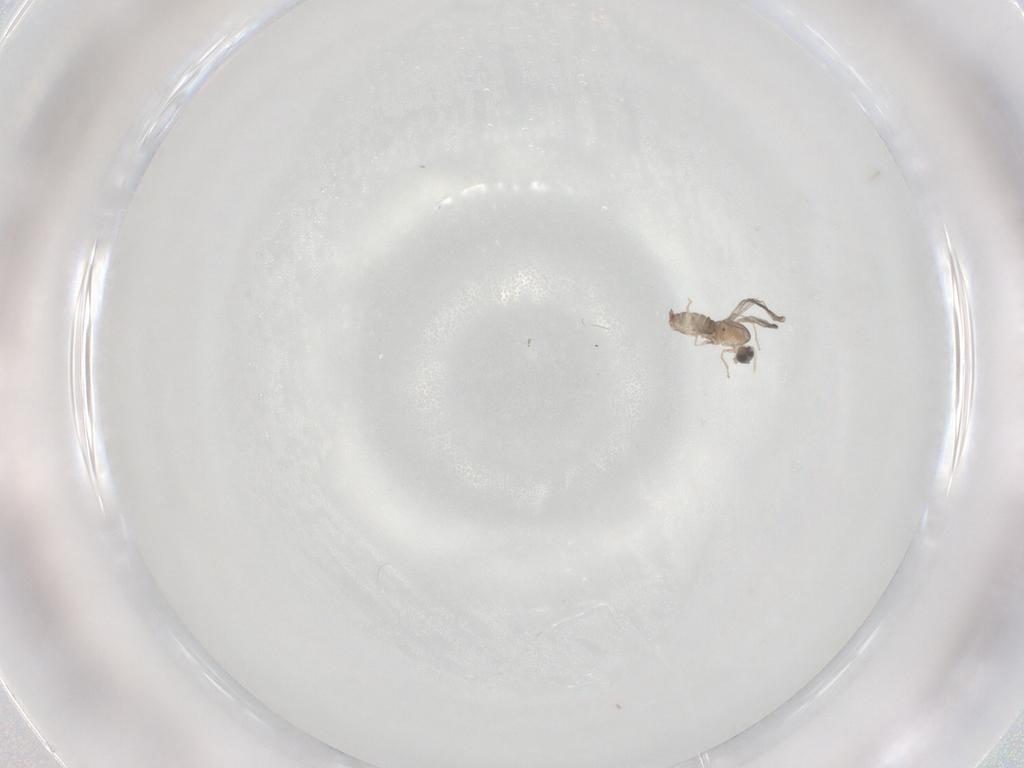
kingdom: Animalia
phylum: Arthropoda
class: Insecta
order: Diptera
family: Cecidomyiidae
